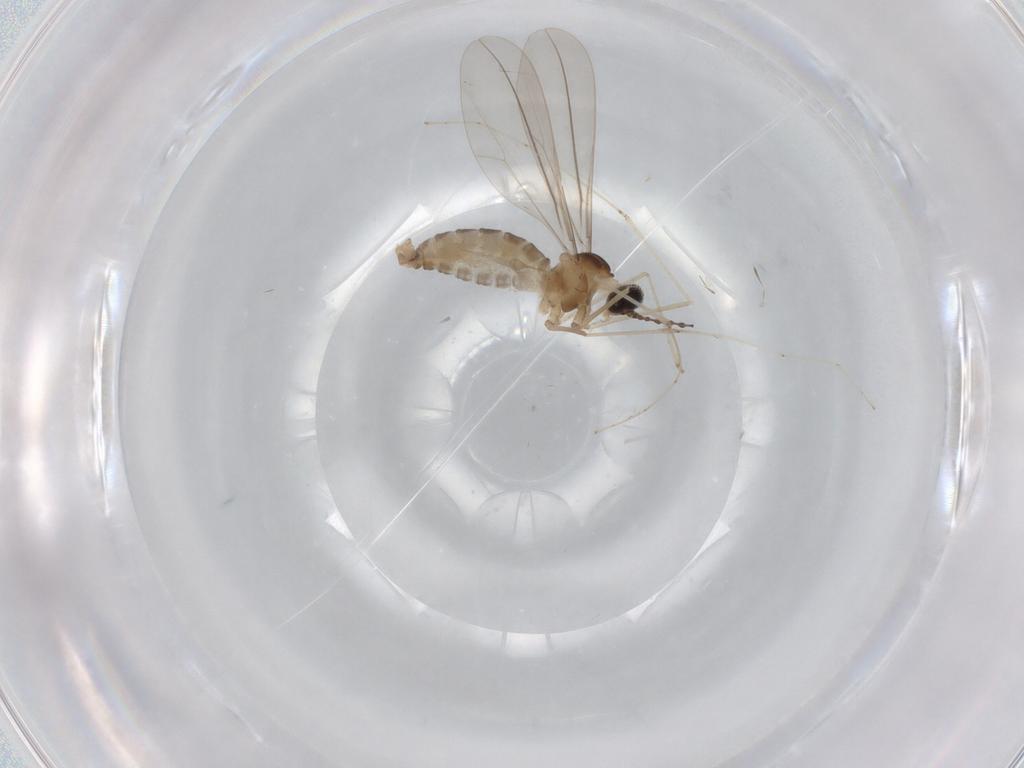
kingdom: Animalia
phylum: Arthropoda
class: Insecta
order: Diptera
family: Cecidomyiidae
